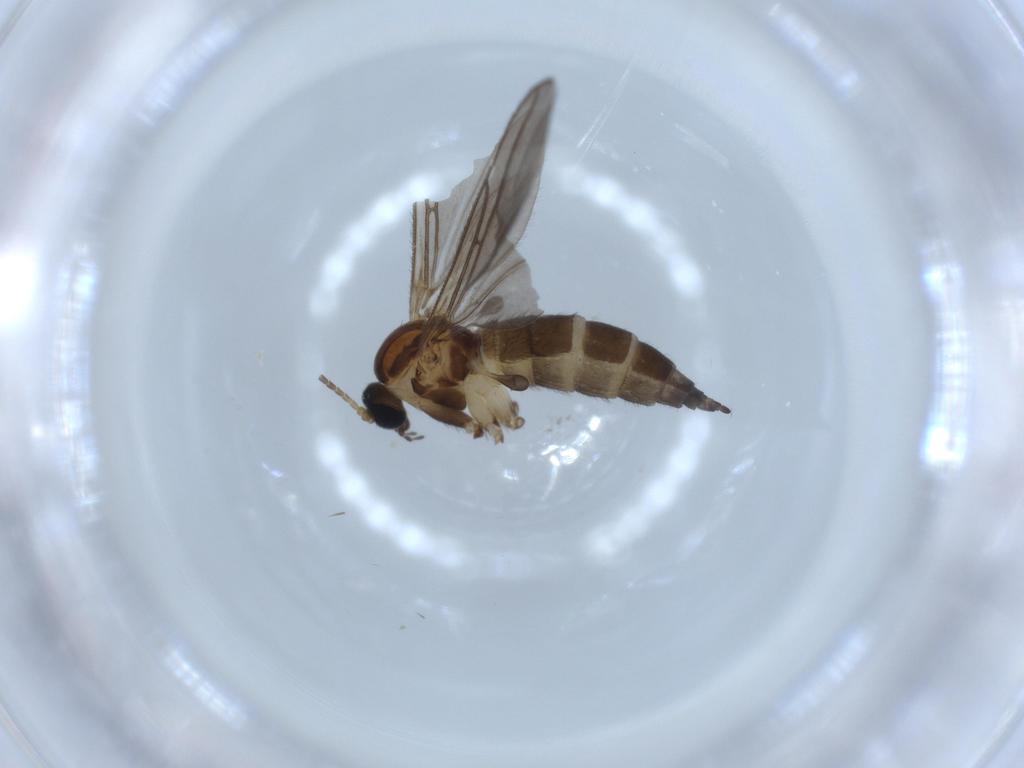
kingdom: Animalia
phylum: Arthropoda
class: Insecta
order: Diptera
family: Sciaridae
